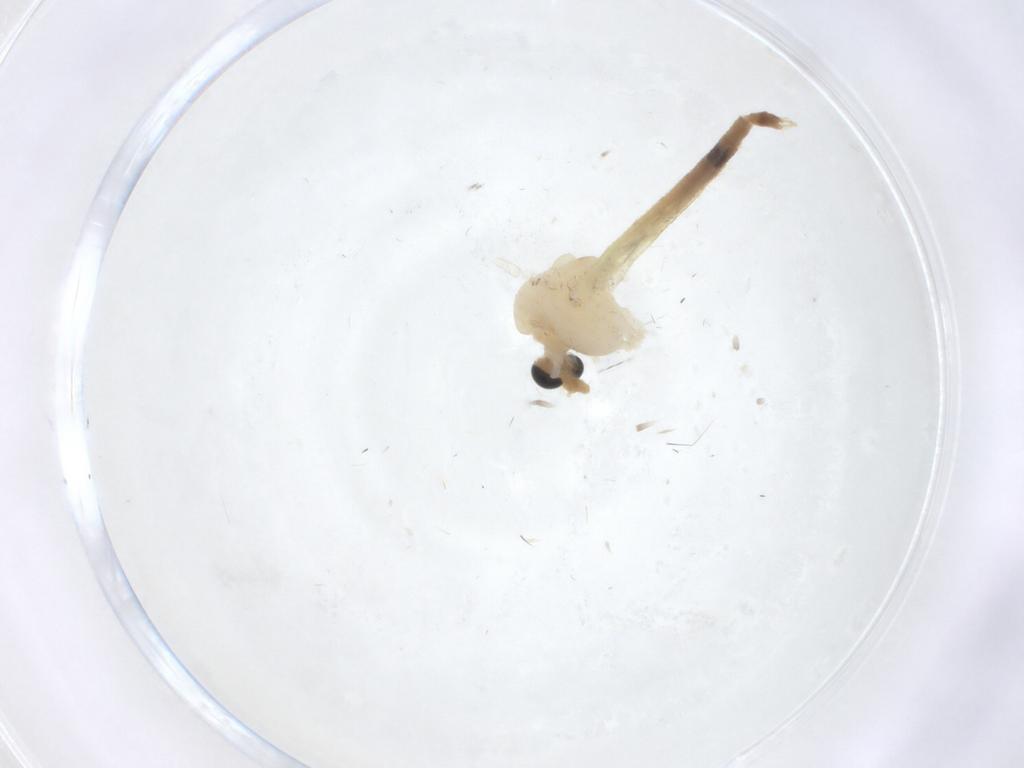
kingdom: Animalia
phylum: Arthropoda
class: Insecta
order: Diptera
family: Chironomidae
